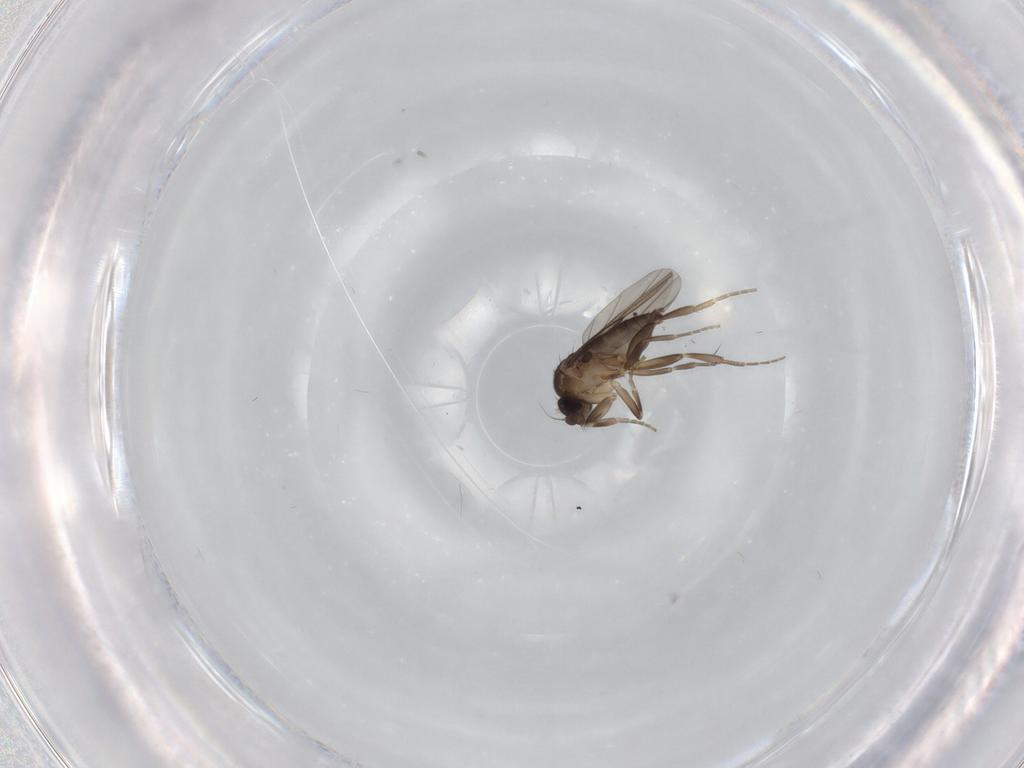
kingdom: Animalia
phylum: Arthropoda
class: Insecta
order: Diptera
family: Phoridae
